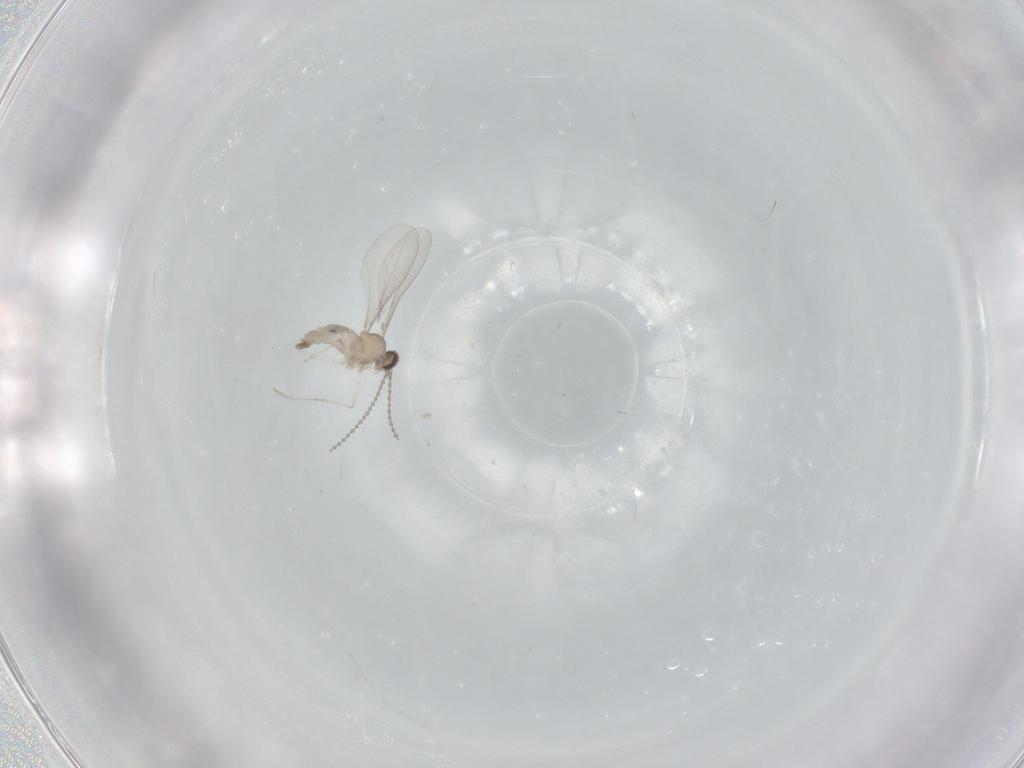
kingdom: Animalia
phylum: Arthropoda
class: Insecta
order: Diptera
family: Cecidomyiidae
